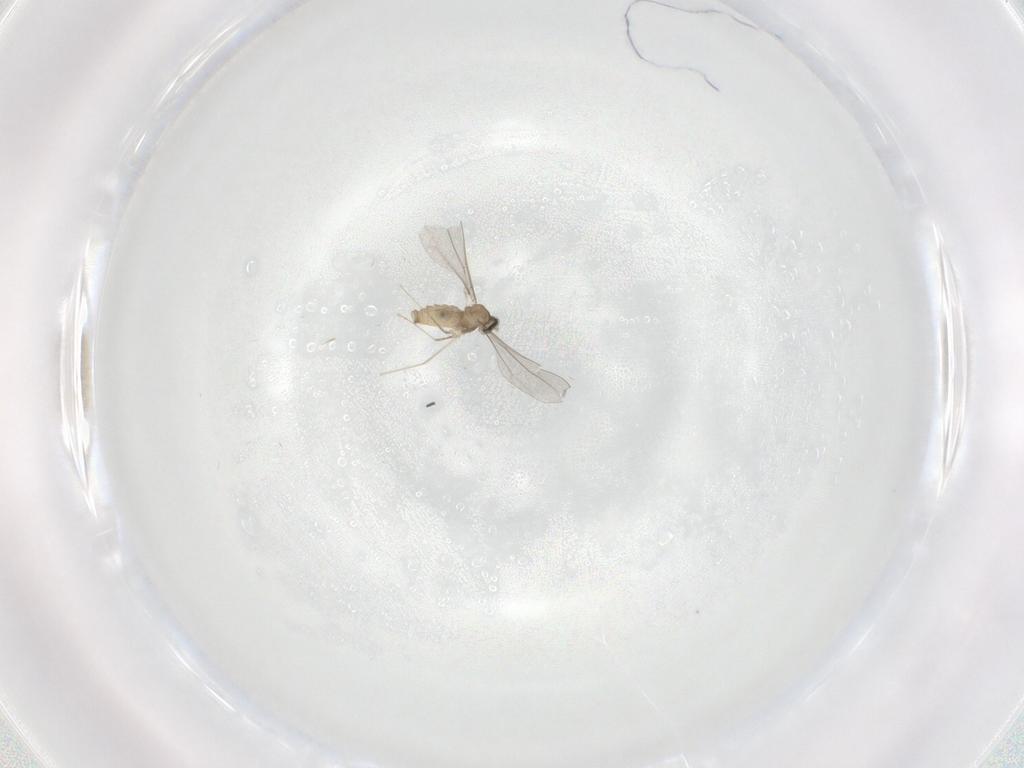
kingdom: Animalia
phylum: Arthropoda
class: Insecta
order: Diptera
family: Cecidomyiidae
